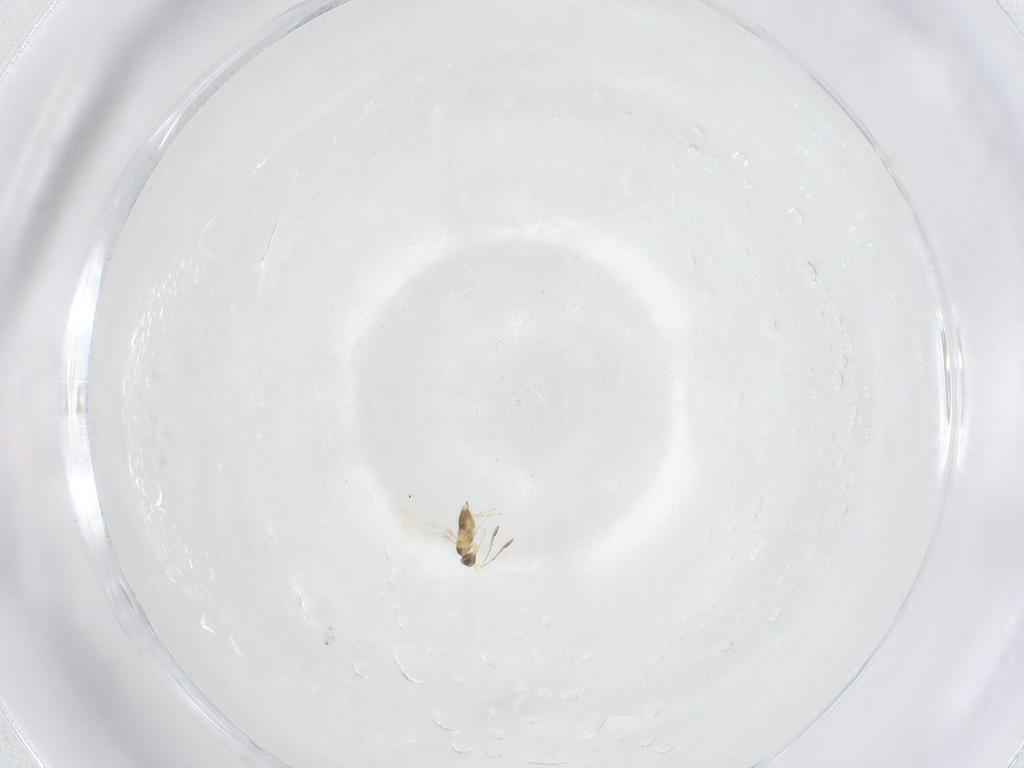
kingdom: Animalia
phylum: Arthropoda
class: Insecta
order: Hymenoptera
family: Mymaridae
